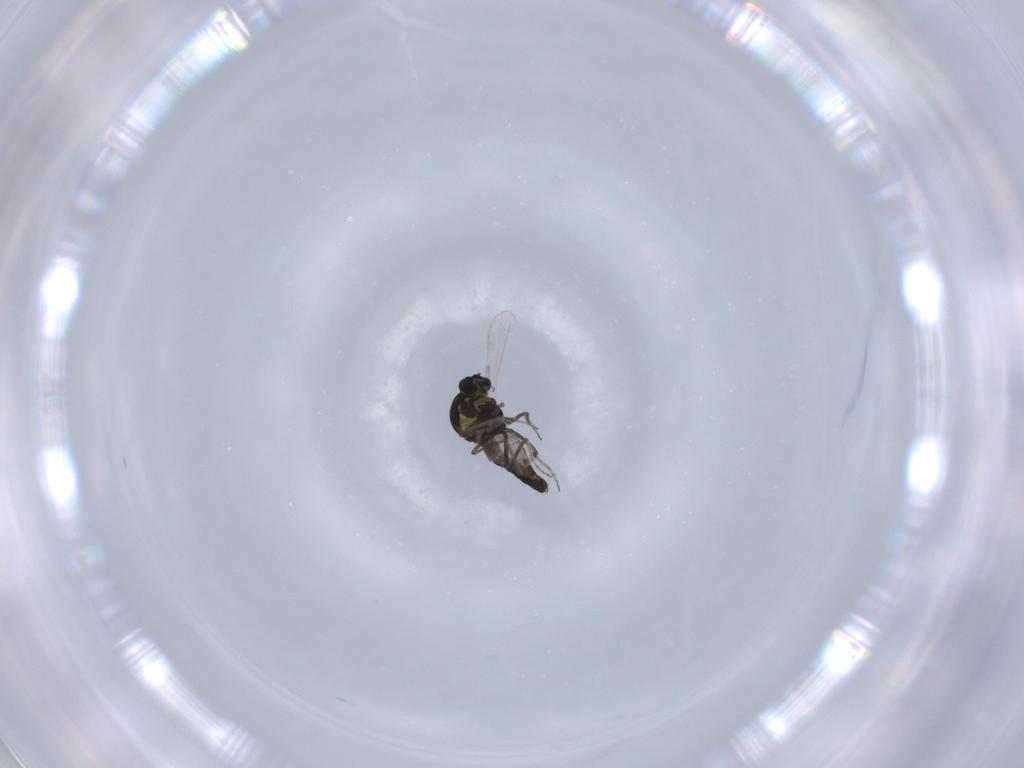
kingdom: Animalia
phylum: Arthropoda
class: Insecta
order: Diptera
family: Ceratopogonidae
